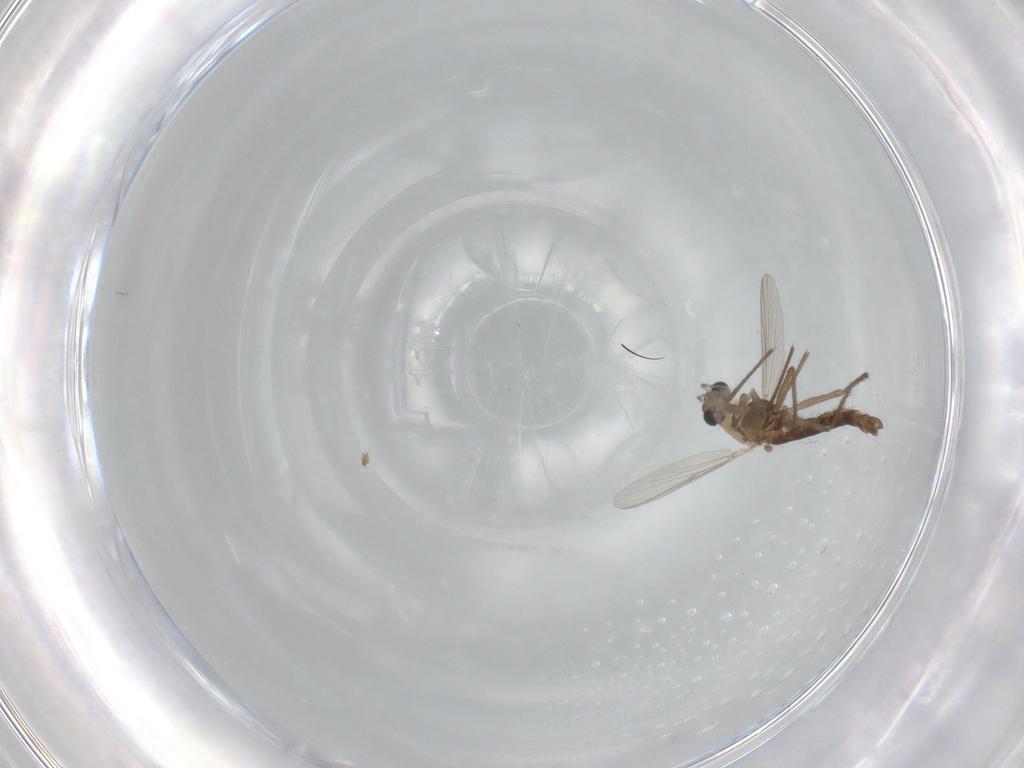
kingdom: Animalia
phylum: Arthropoda
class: Insecta
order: Diptera
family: Chironomidae
